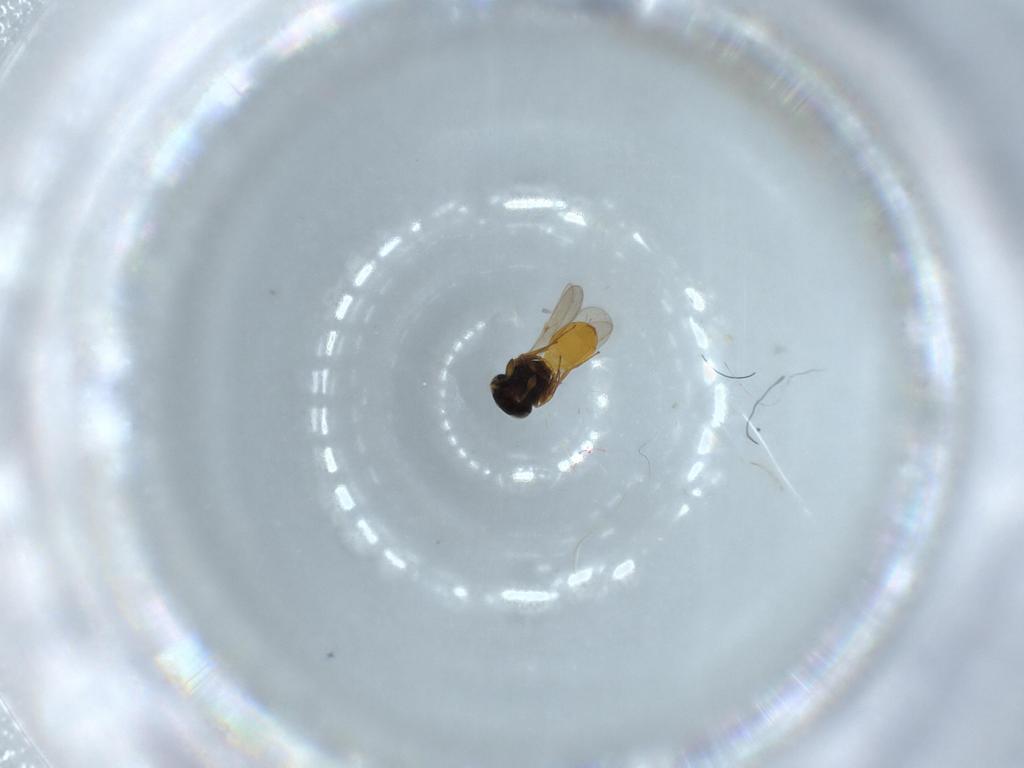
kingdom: Animalia
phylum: Arthropoda
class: Insecta
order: Hymenoptera
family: Scelionidae
